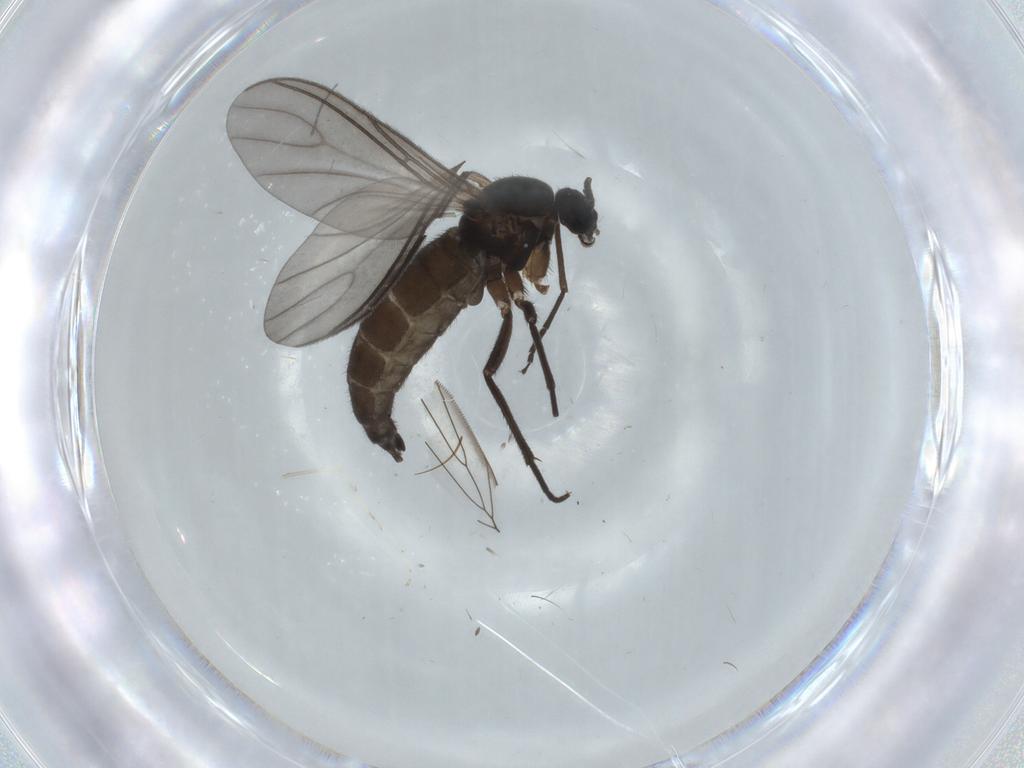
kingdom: Animalia
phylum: Arthropoda
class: Insecta
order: Diptera
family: Sciaridae
